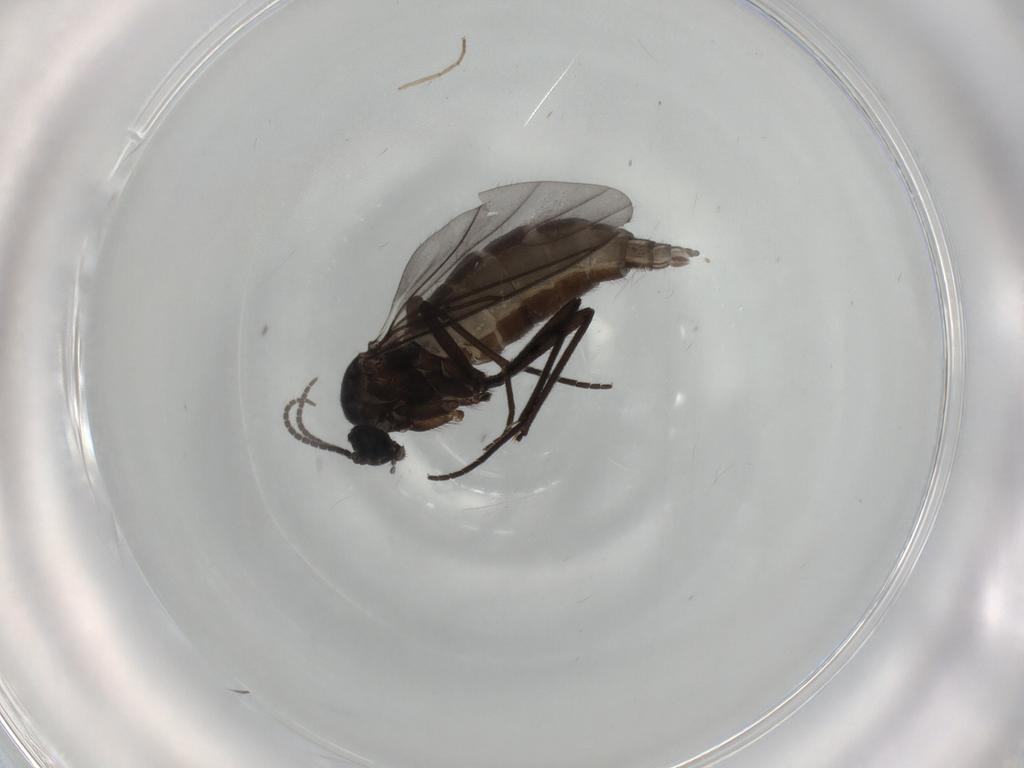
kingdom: Animalia
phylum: Arthropoda
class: Insecta
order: Diptera
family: Sciaridae
